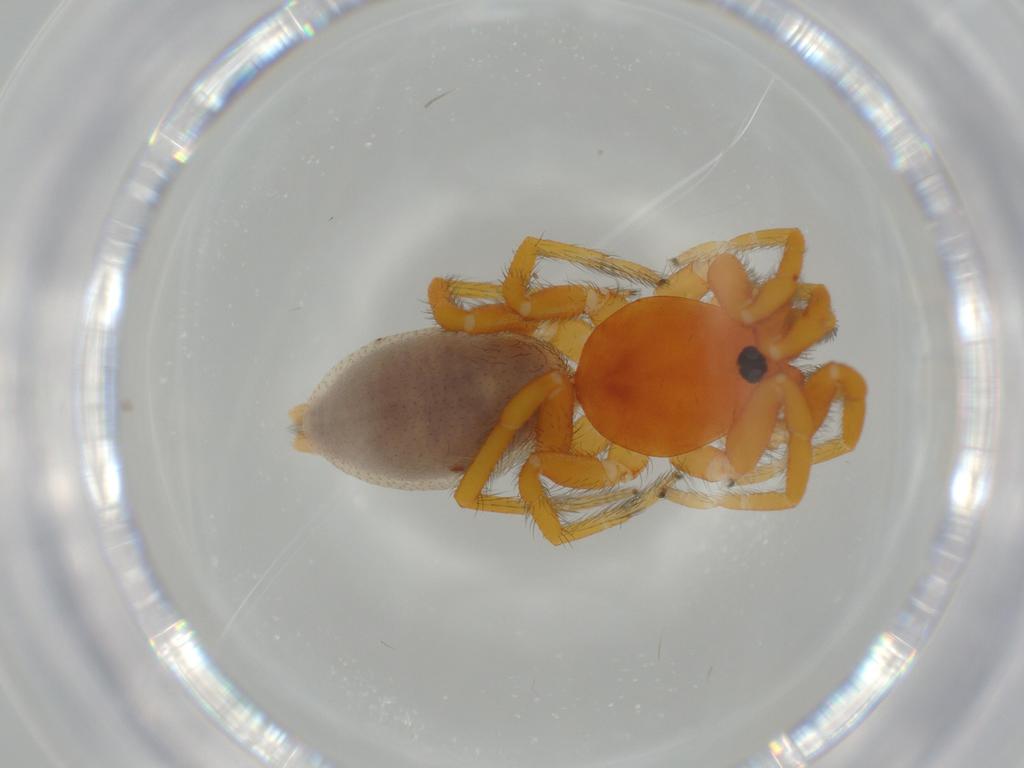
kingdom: Animalia
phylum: Arthropoda
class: Arachnida
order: Araneae
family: Caponiidae
